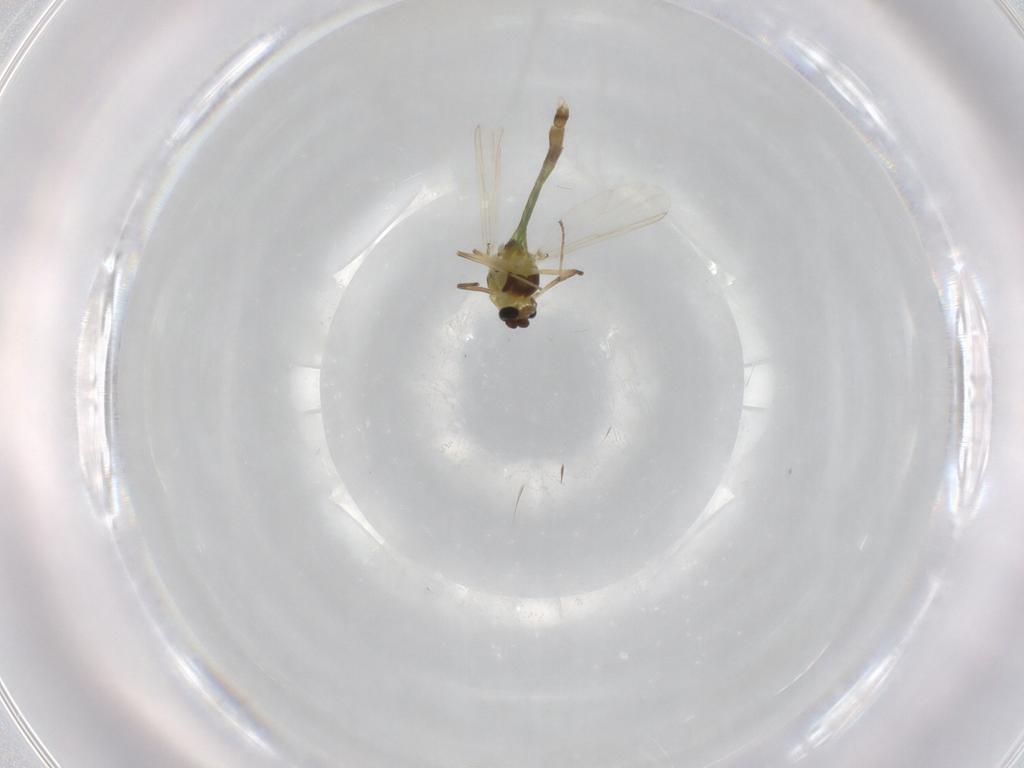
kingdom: Animalia
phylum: Arthropoda
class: Insecta
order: Diptera
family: Chironomidae
